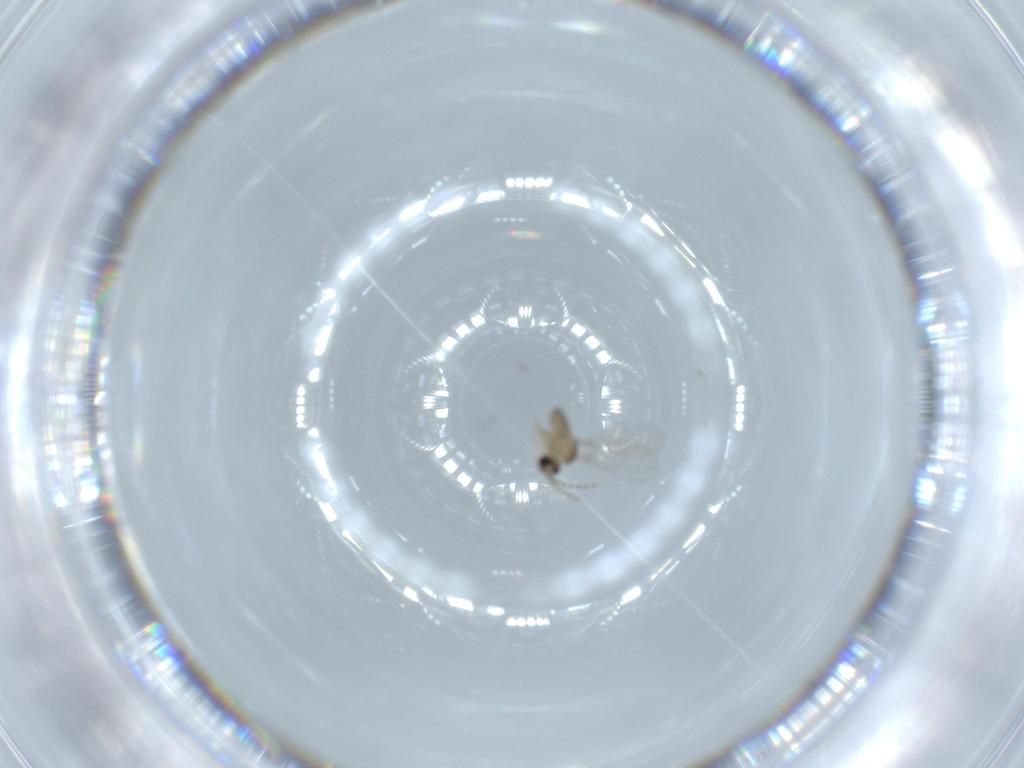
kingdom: Animalia
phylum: Arthropoda
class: Insecta
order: Diptera
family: Cecidomyiidae
